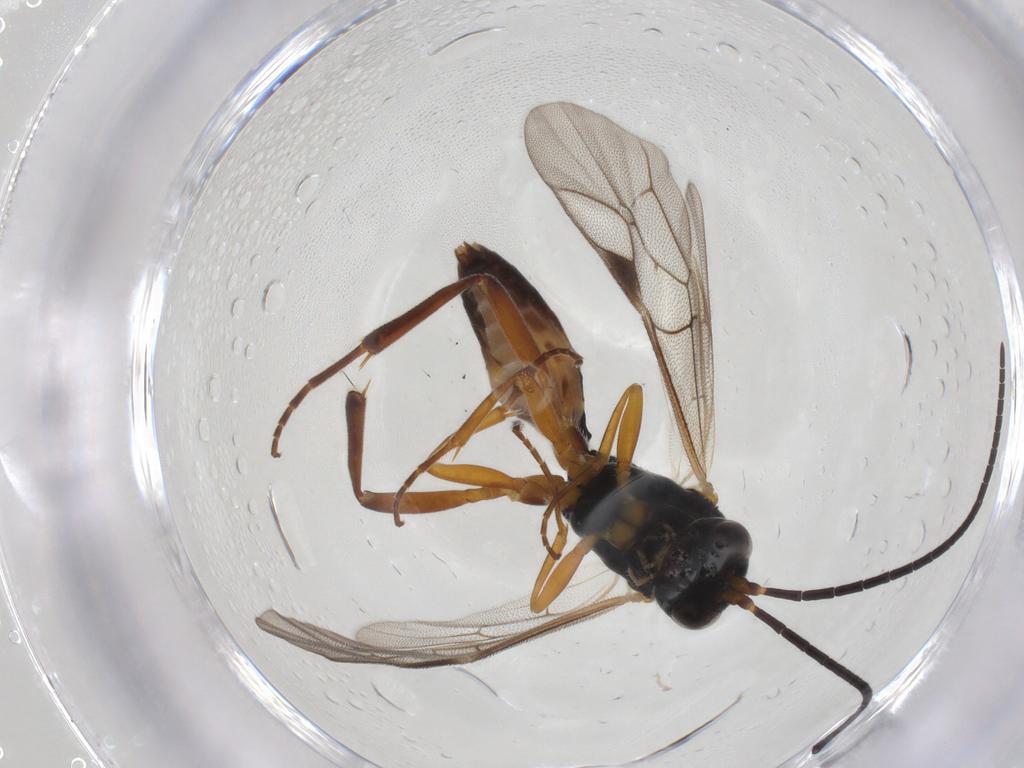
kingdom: Animalia
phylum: Arthropoda
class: Insecta
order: Hymenoptera
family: Ichneumonidae
